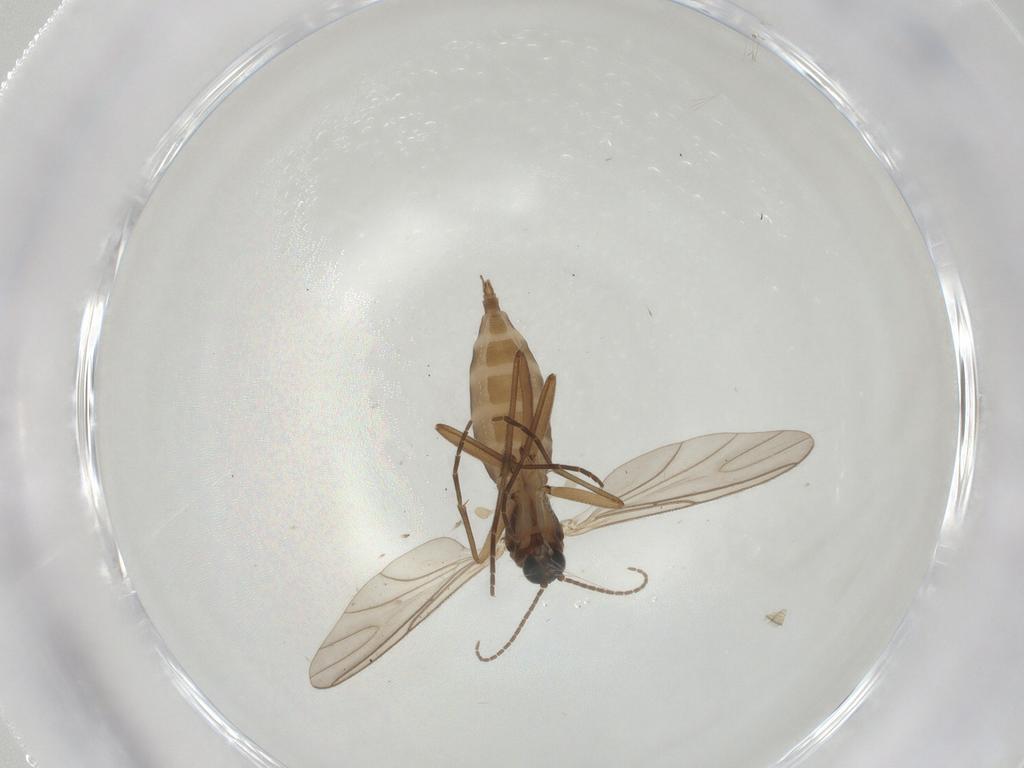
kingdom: Animalia
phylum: Arthropoda
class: Insecta
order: Diptera
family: Sciaridae
